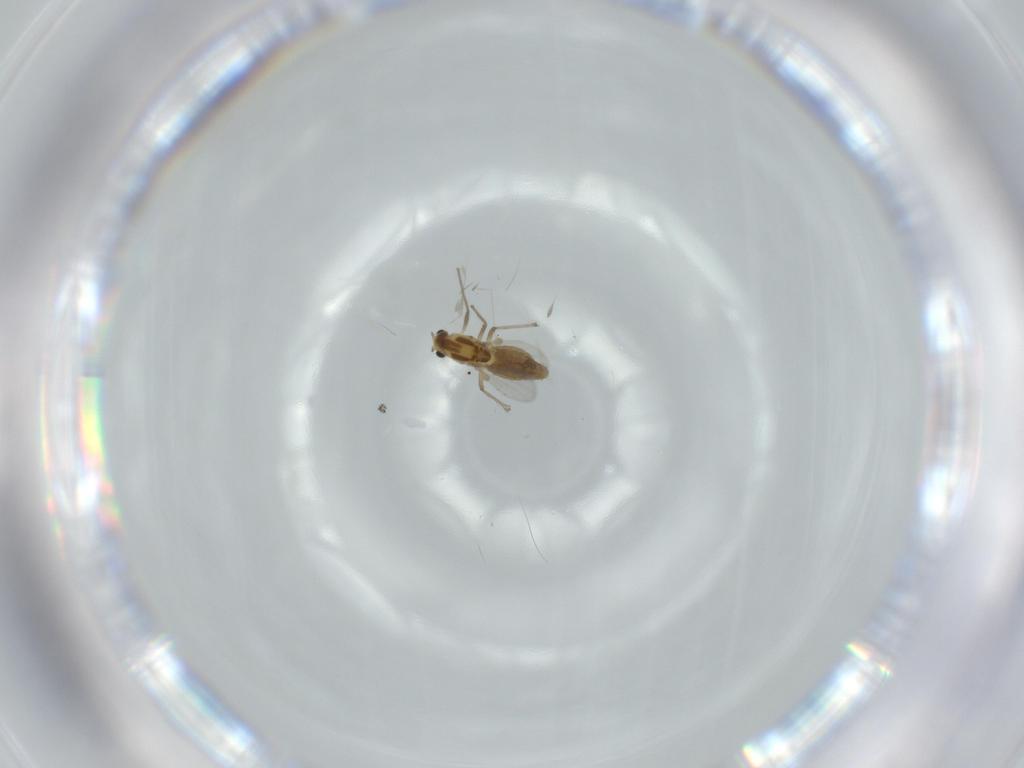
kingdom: Animalia
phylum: Arthropoda
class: Insecta
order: Diptera
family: Chironomidae
